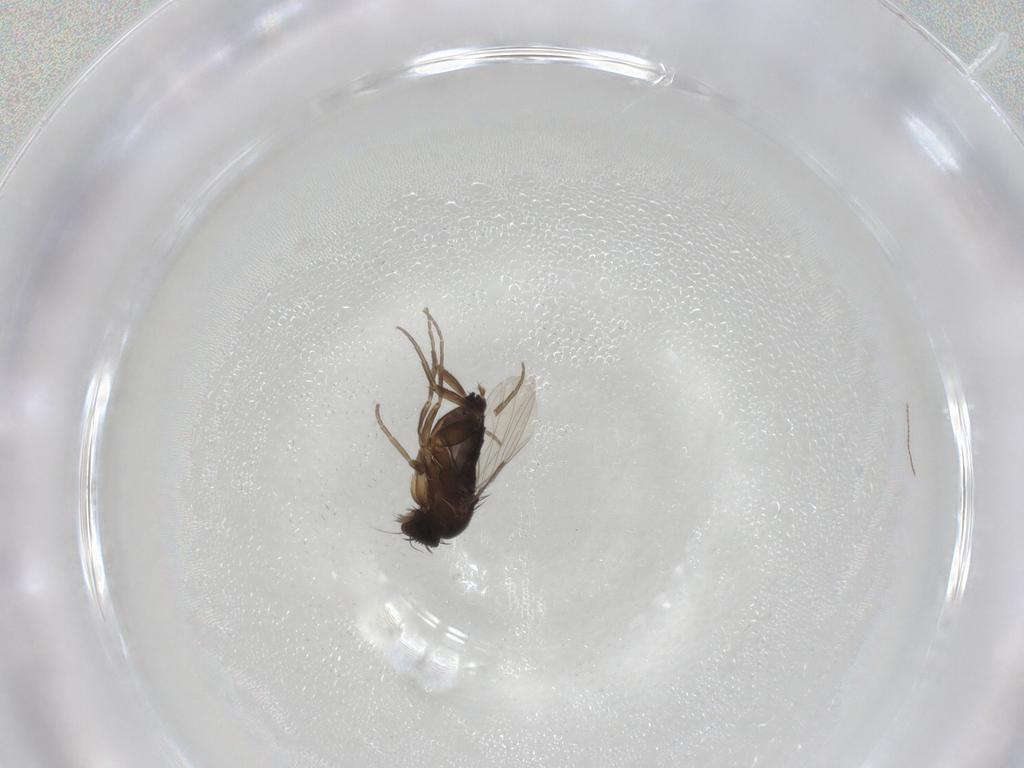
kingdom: Animalia
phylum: Arthropoda
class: Insecta
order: Diptera
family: Phoridae
